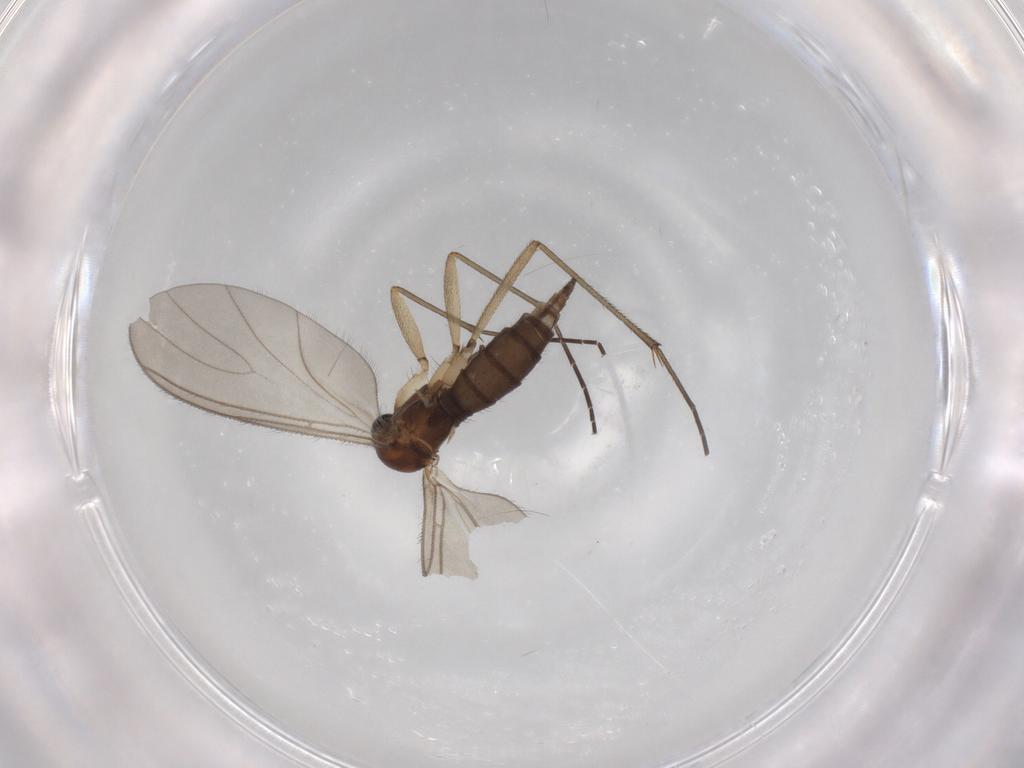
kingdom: Animalia
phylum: Arthropoda
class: Insecta
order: Diptera
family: Sciaridae
